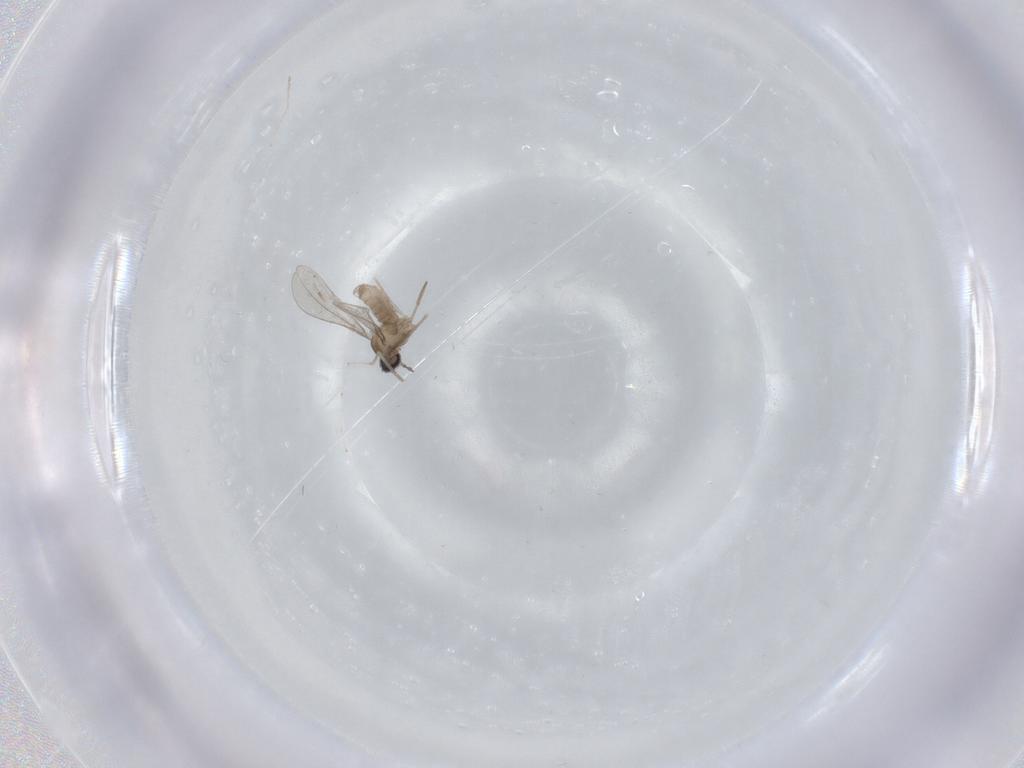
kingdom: Animalia
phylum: Arthropoda
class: Insecta
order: Diptera
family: Cecidomyiidae
